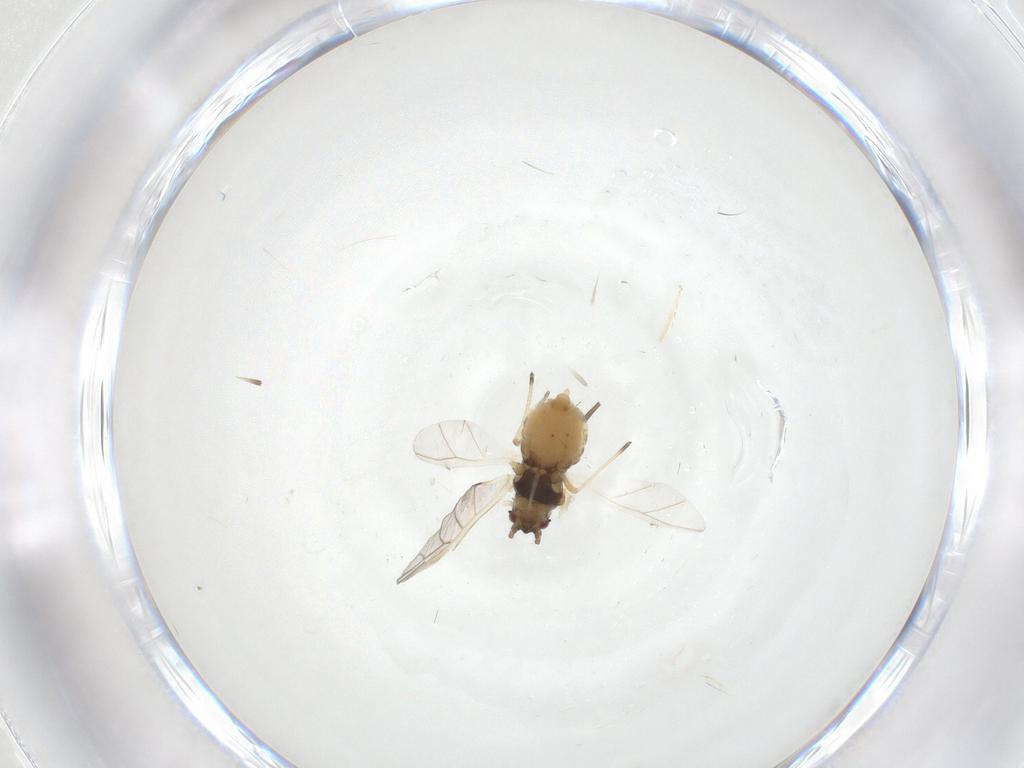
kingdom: Animalia
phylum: Arthropoda
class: Insecta
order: Hemiptera
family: Aphididae
